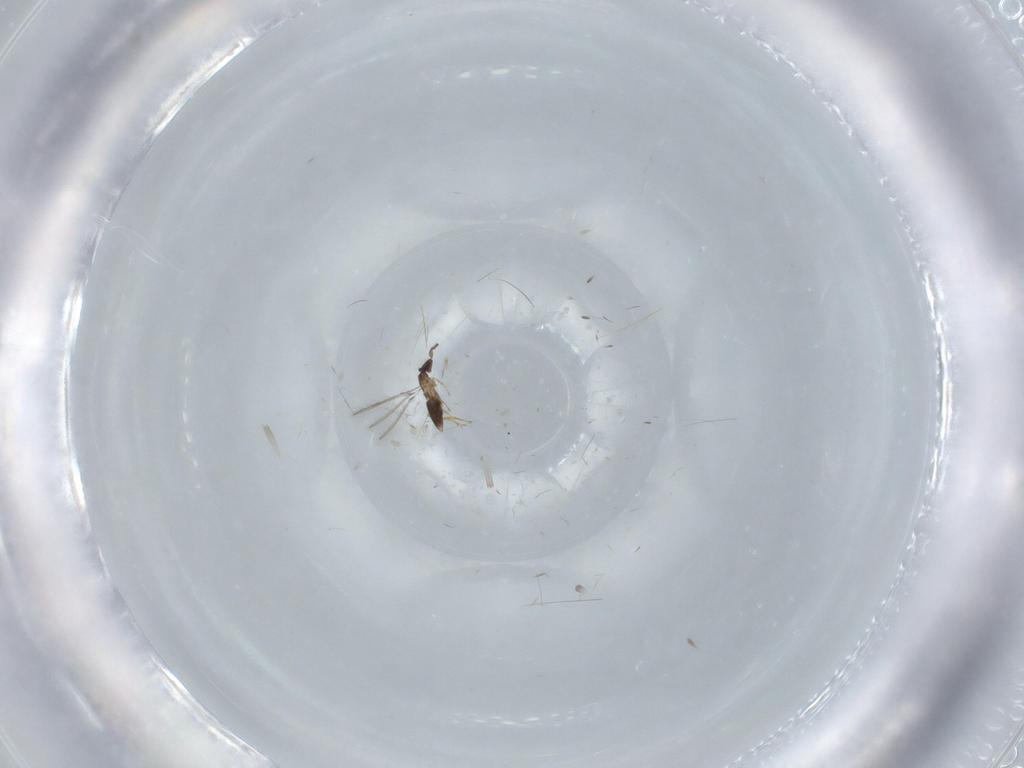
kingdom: Animalia
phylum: Arthropoda
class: Insecta
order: Hymenoptera
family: Mymaridae
